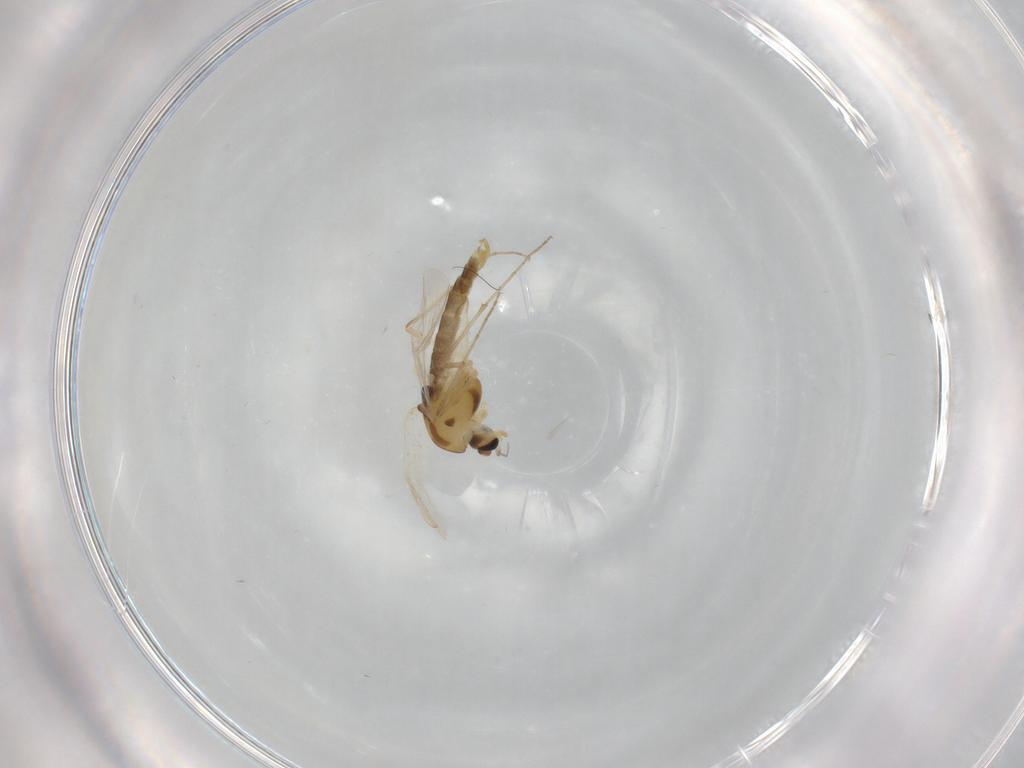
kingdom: Animalia
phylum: Arthropoda
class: Insecta
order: Diptera
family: Chironomidae
